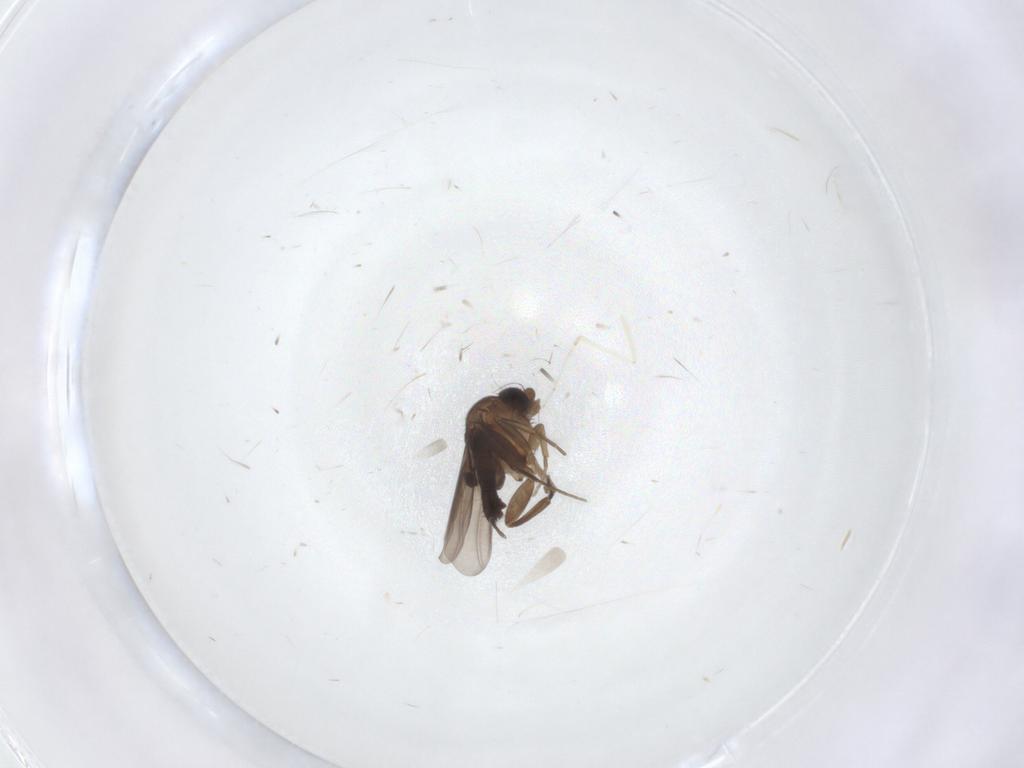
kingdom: Animalia
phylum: Arthropoda
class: Insecta
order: Diptera
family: Phoridae
